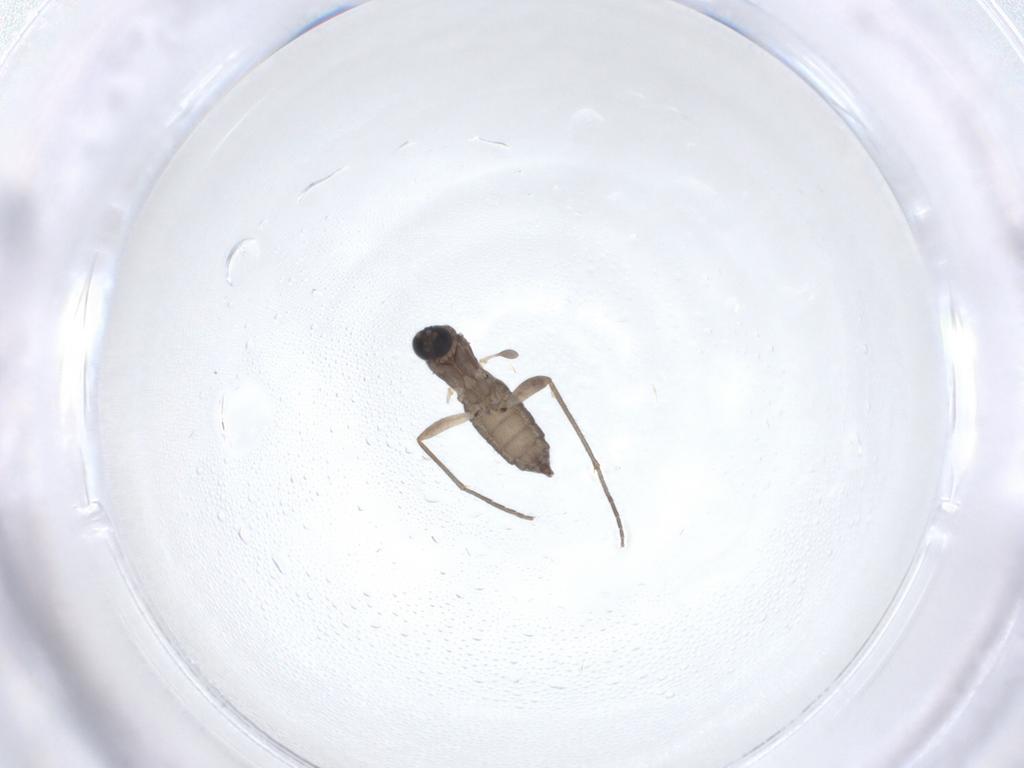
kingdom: Animalia
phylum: Arthropoda
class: Insecta
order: Diptera
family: Sciaridae
